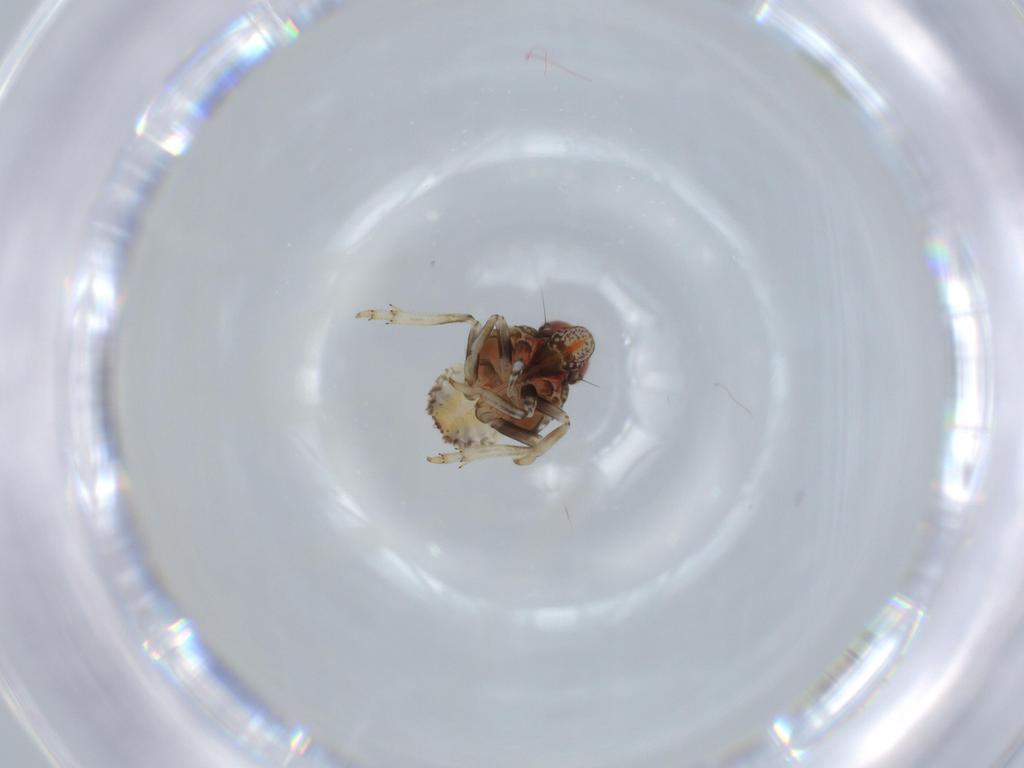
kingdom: Animalia
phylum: Arthropoda
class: Insecta
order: Hemiptera
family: Issidae
